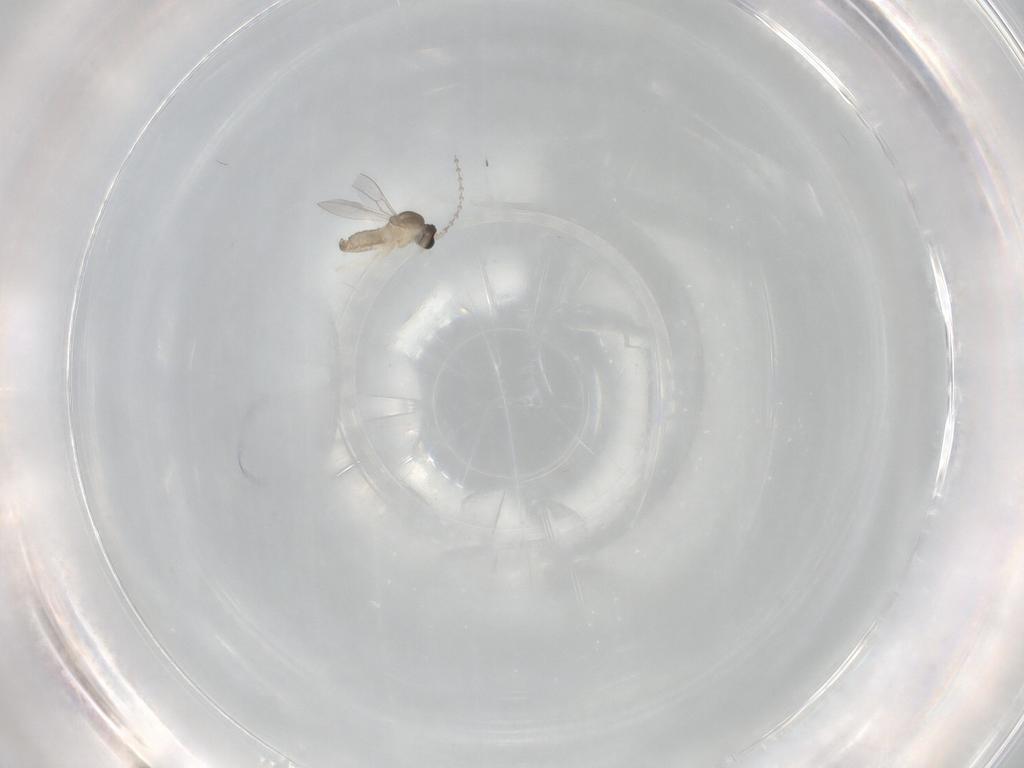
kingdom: Animalia
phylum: Arthropoda
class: Insecta
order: Diptera
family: Cecidomyiidae
